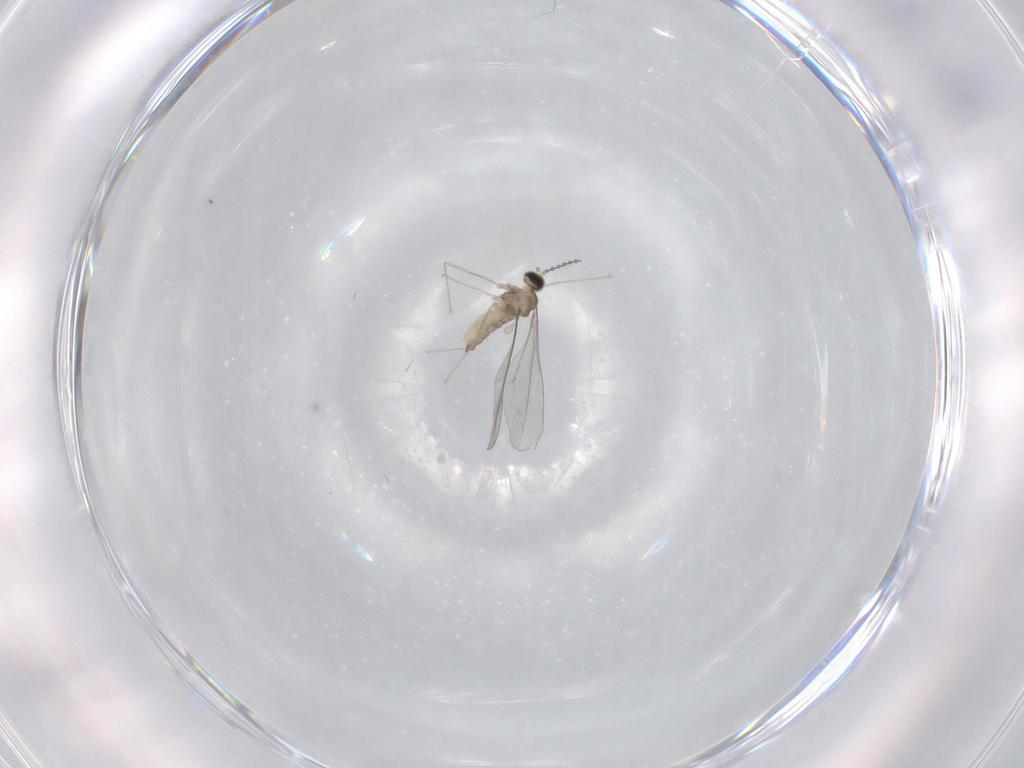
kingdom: Animalia
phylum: Arthropoda
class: Insecta
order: Diptera
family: Cecidomyiidae
